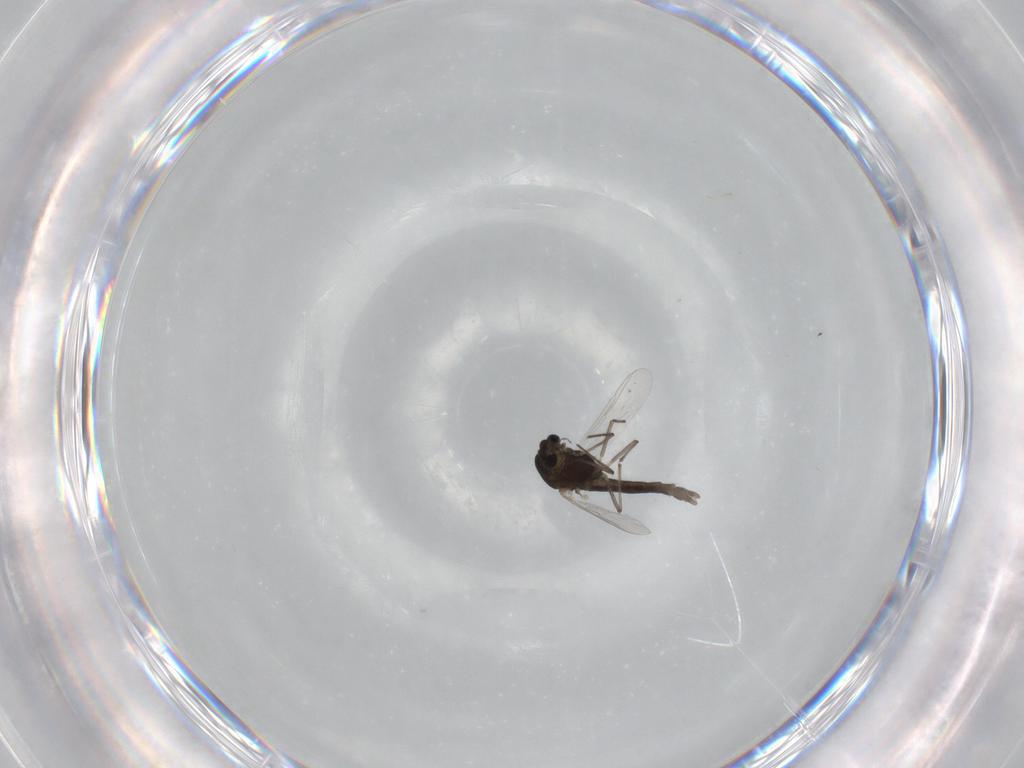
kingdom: Animalia
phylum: Arthropoda
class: Insecta
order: Diptera
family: Chironomidae
